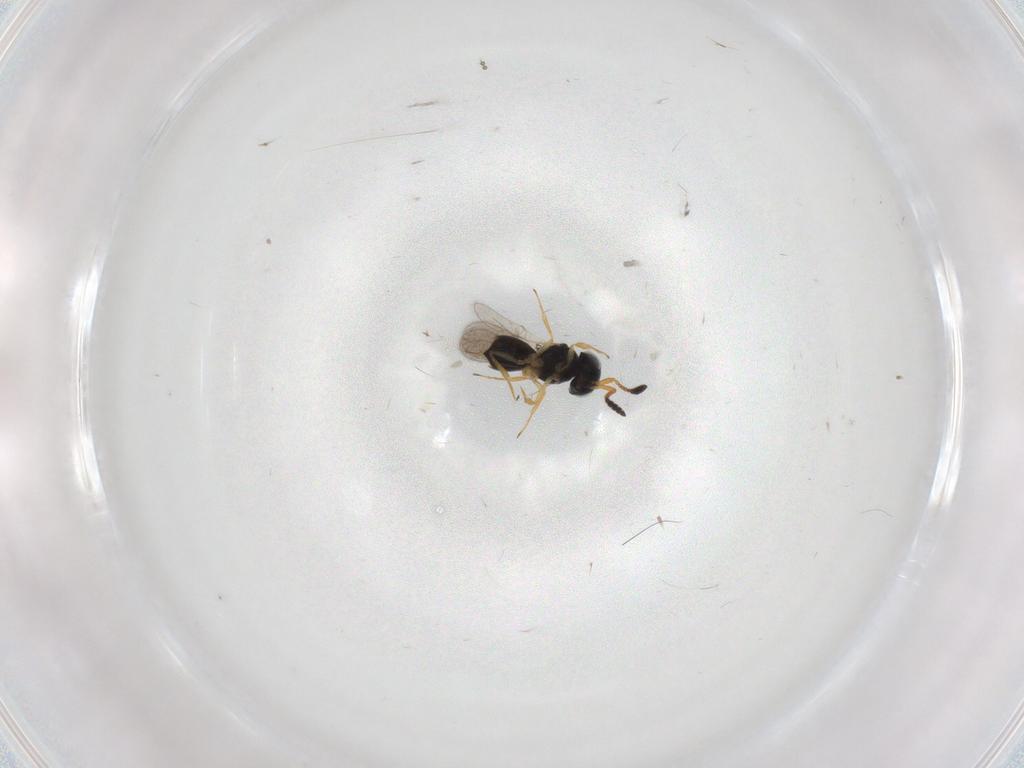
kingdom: Animalia
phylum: Arthropoda
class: Insecta
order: Hymenoptera
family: Scelionidae
